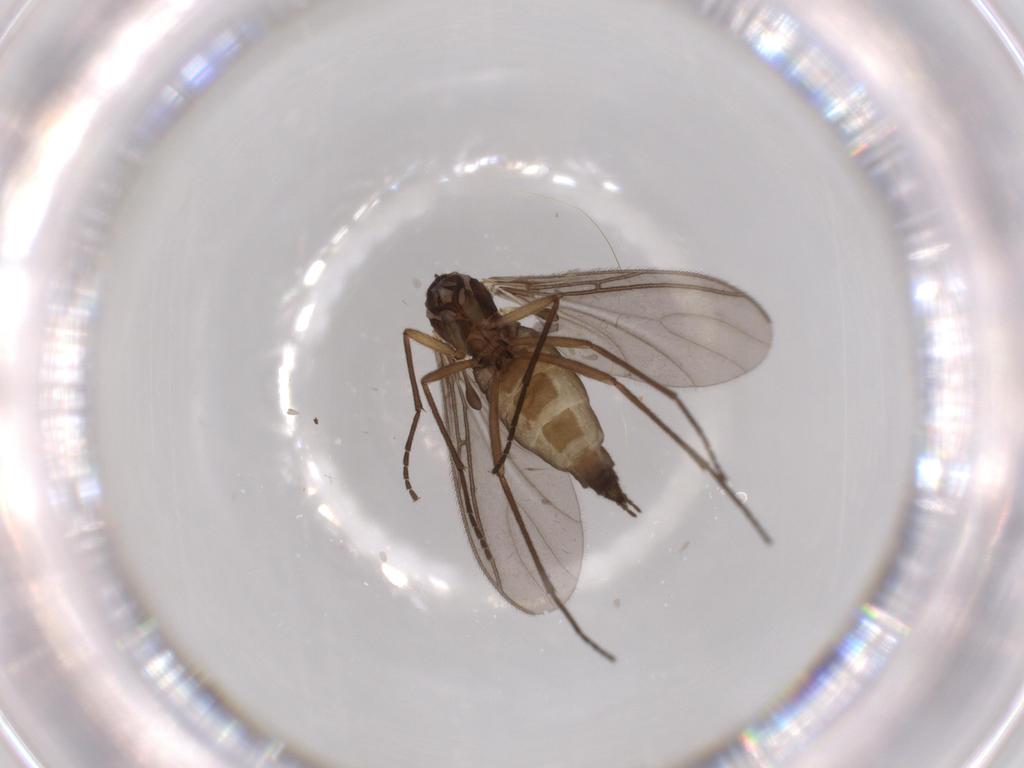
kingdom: Animalia
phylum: Arthropoda
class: Insecta
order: Diptera
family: Sciaridae
